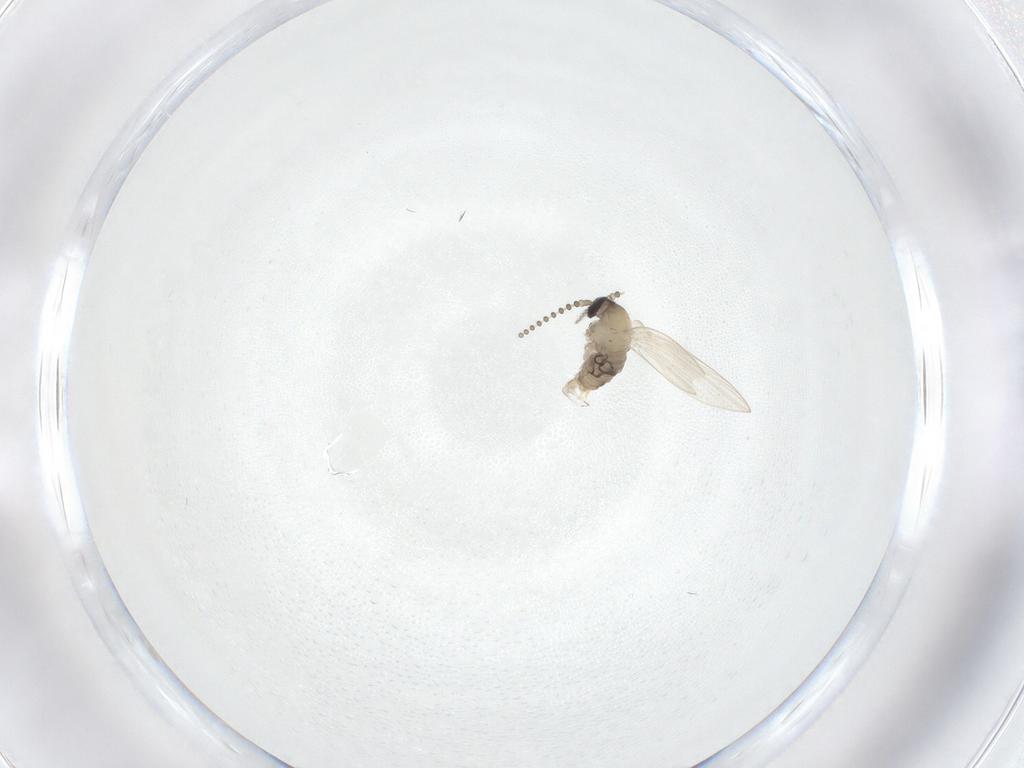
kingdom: Animalia
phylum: Arthropoda
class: Insecta
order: Diptera
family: Psychodidae
